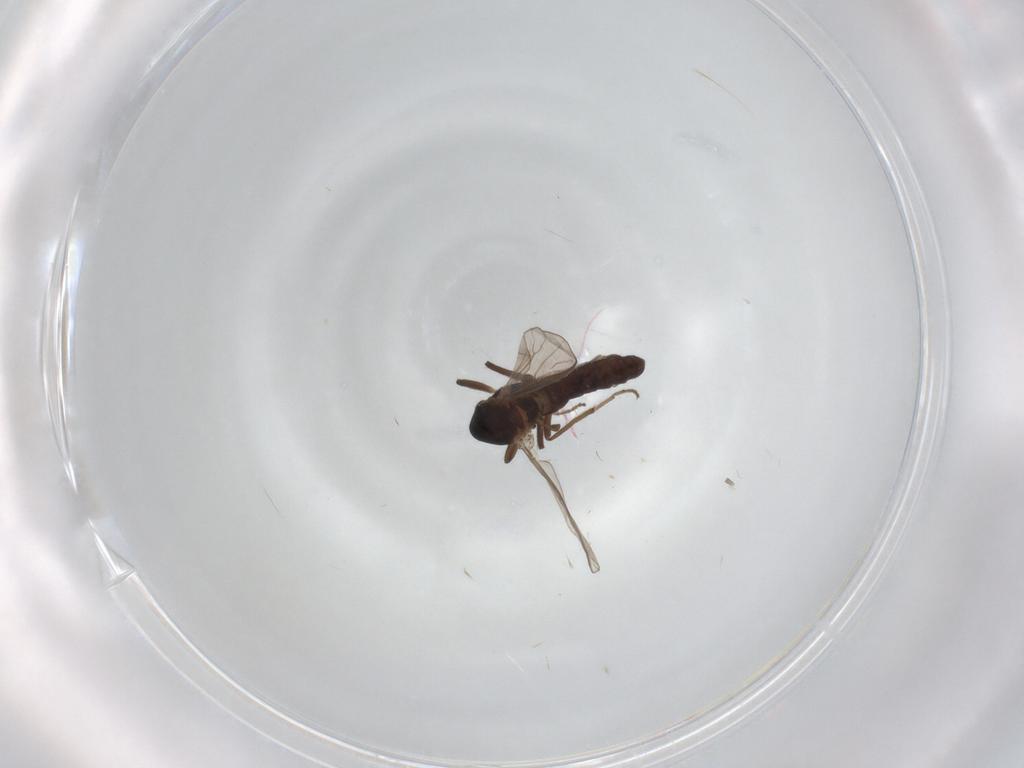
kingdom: Animalia
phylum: Arthropoda
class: Insecta
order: Diptera
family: Chironomidae
